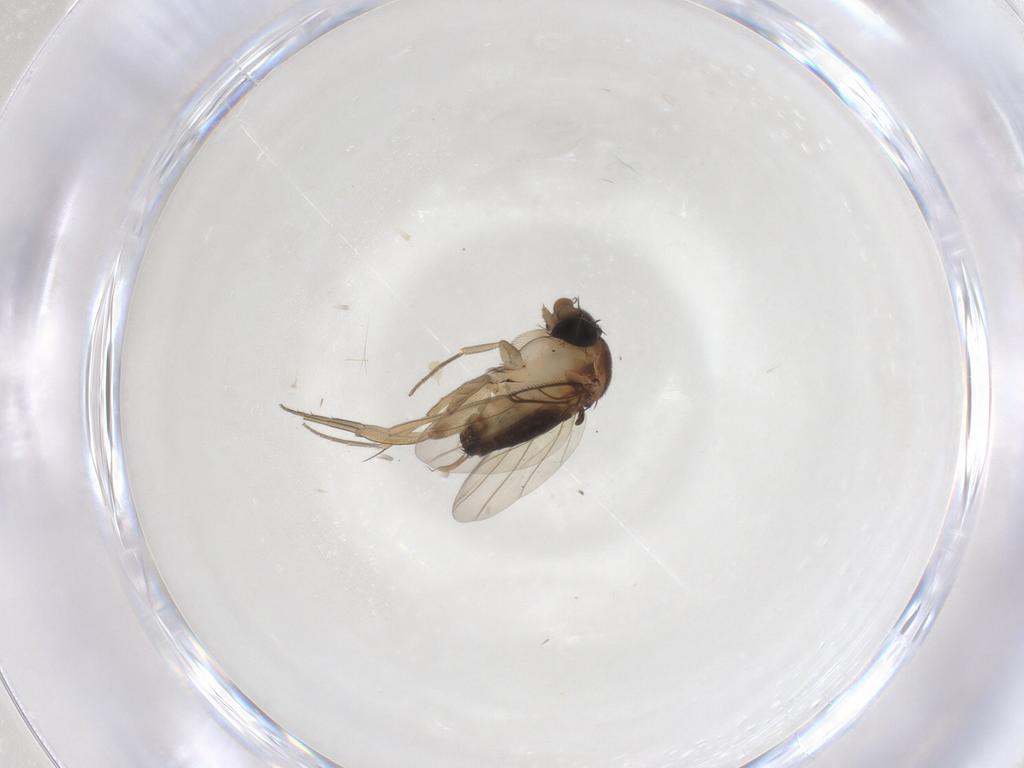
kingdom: Animalia
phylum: Arthropoda
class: Insecta
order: Diptera
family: Phoridae
